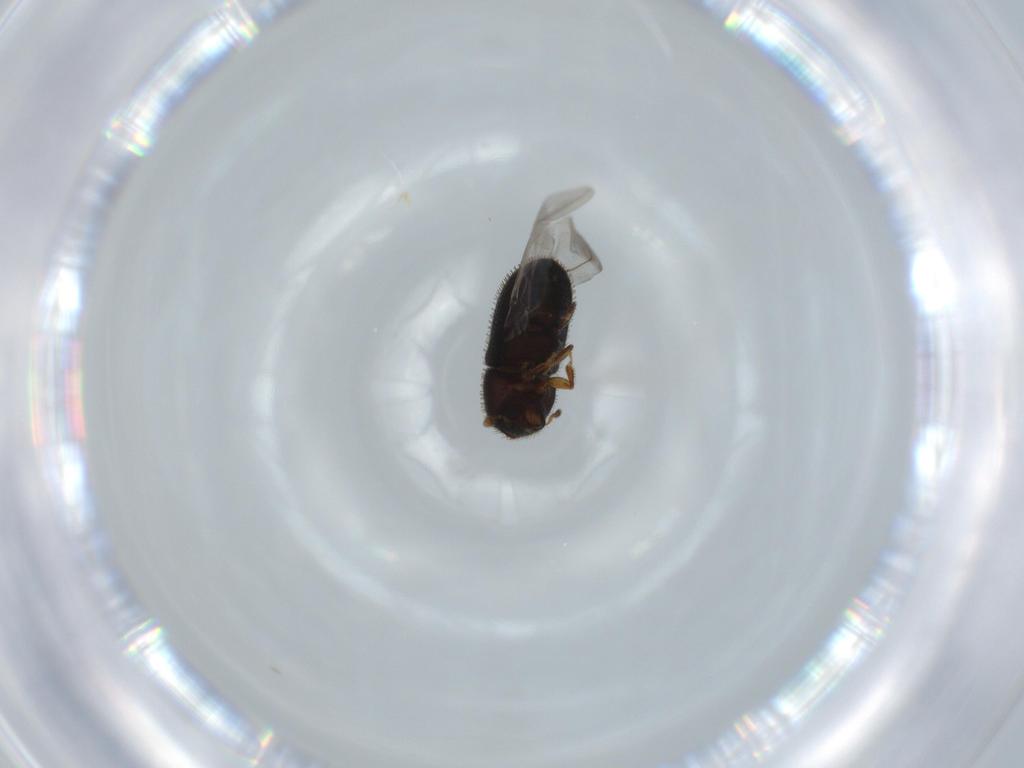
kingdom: Animalia
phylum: Arthropoda
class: Insecta
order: Coleoptera
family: Curculionidae
